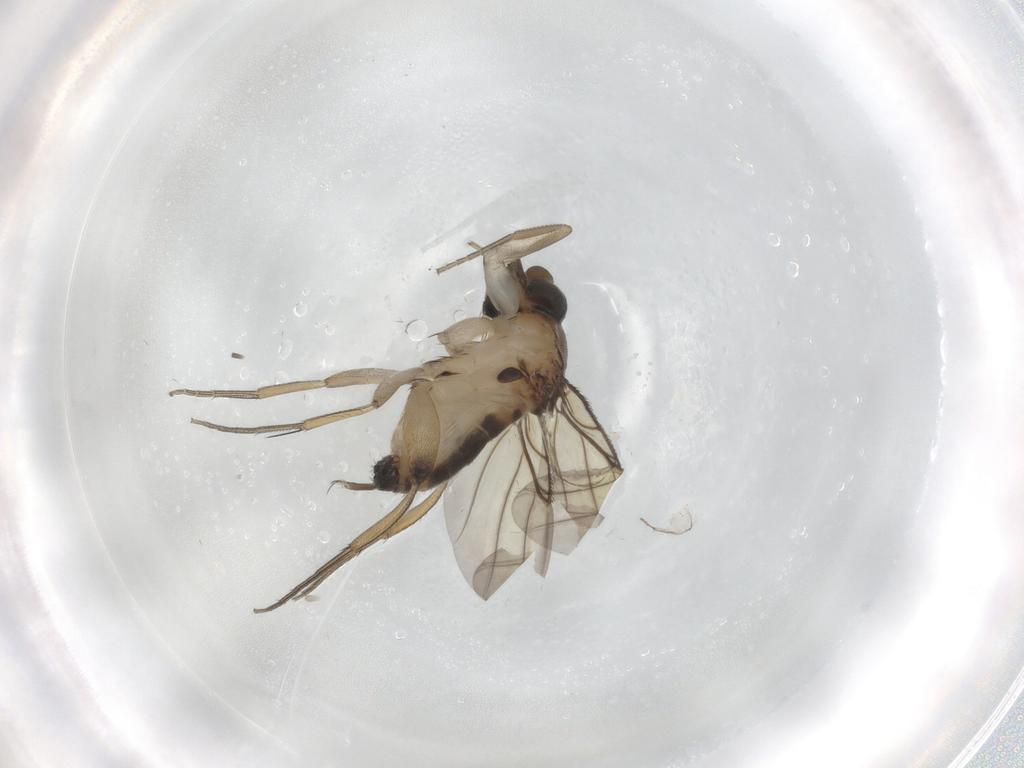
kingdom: Animalia
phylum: Arthropoda
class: Insecta
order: Diptera
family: Phoridae
